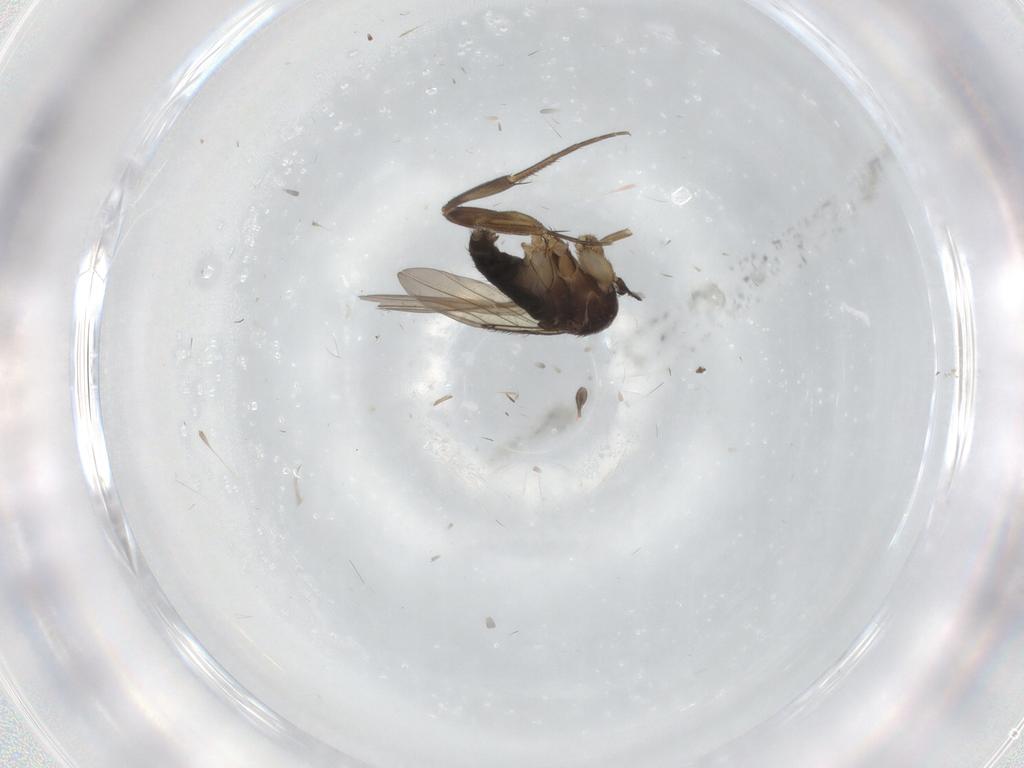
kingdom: Animalia
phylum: Arthropoda
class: Insecta
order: Diptera
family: Phoridae
